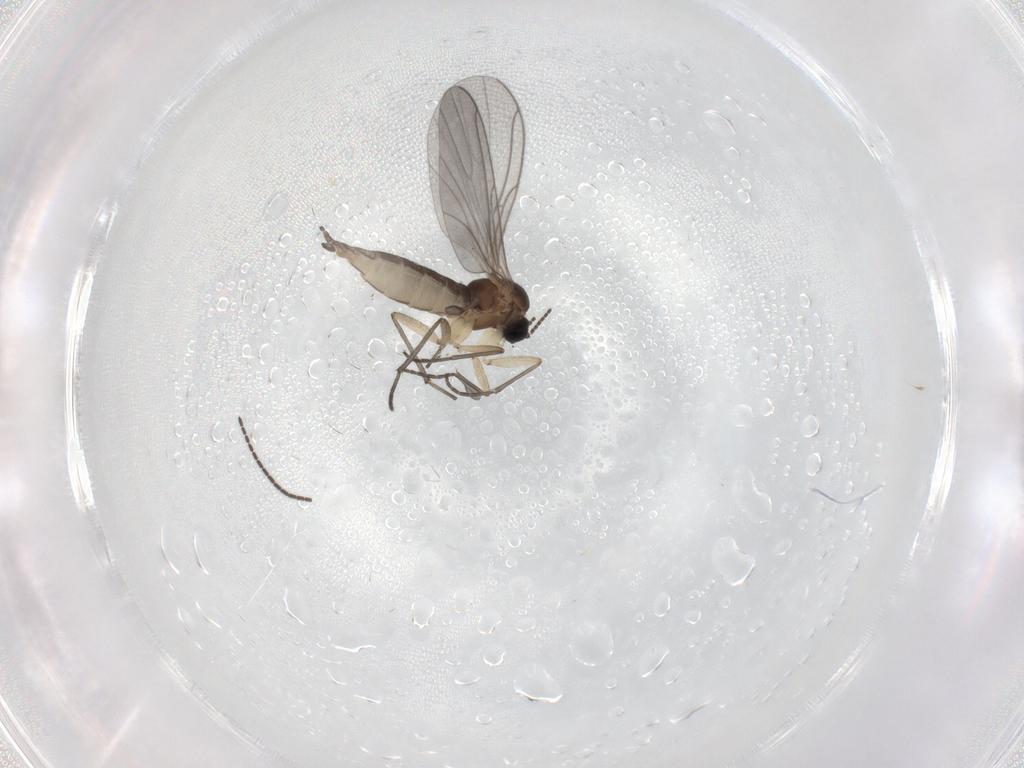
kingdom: Animalia
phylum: Arthropoda
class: Insecta
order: Diptera
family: Sciaridae
